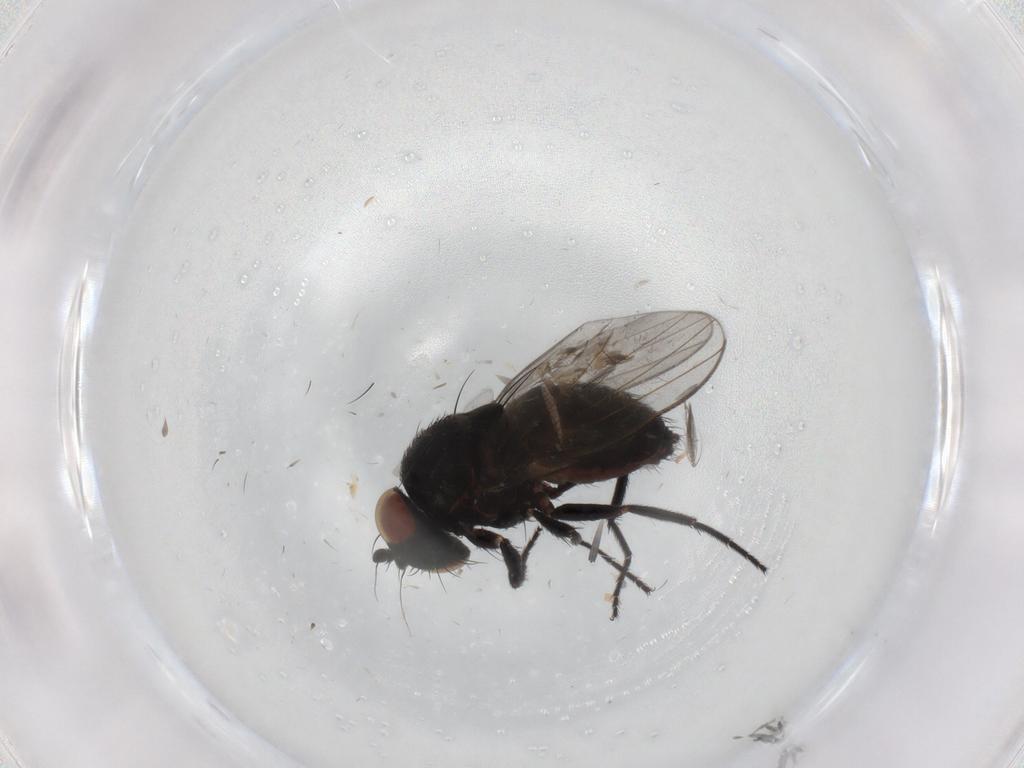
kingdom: Animalia
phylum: Arthropoda
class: Insecta
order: Diptera
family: Milichiidae
